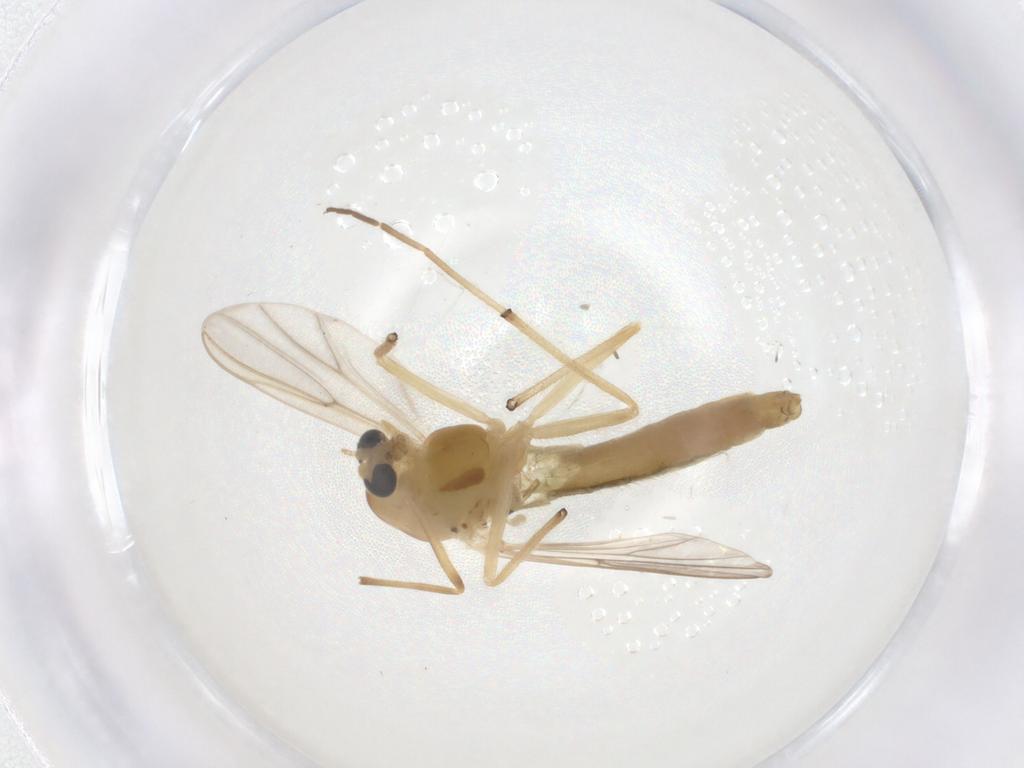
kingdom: Animalia
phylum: Arthropoda
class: Insecta
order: Diptera
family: Chironomidae
